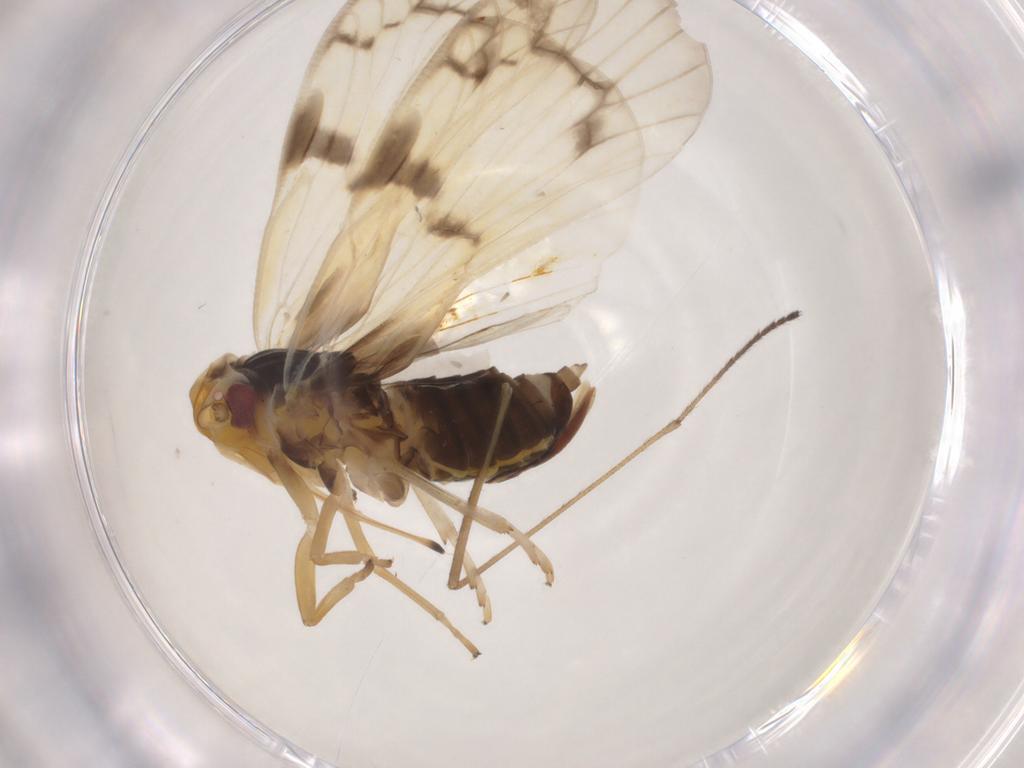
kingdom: Animalia
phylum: Arthropoda
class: Insecta
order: Hemiptera
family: Cixiidae
